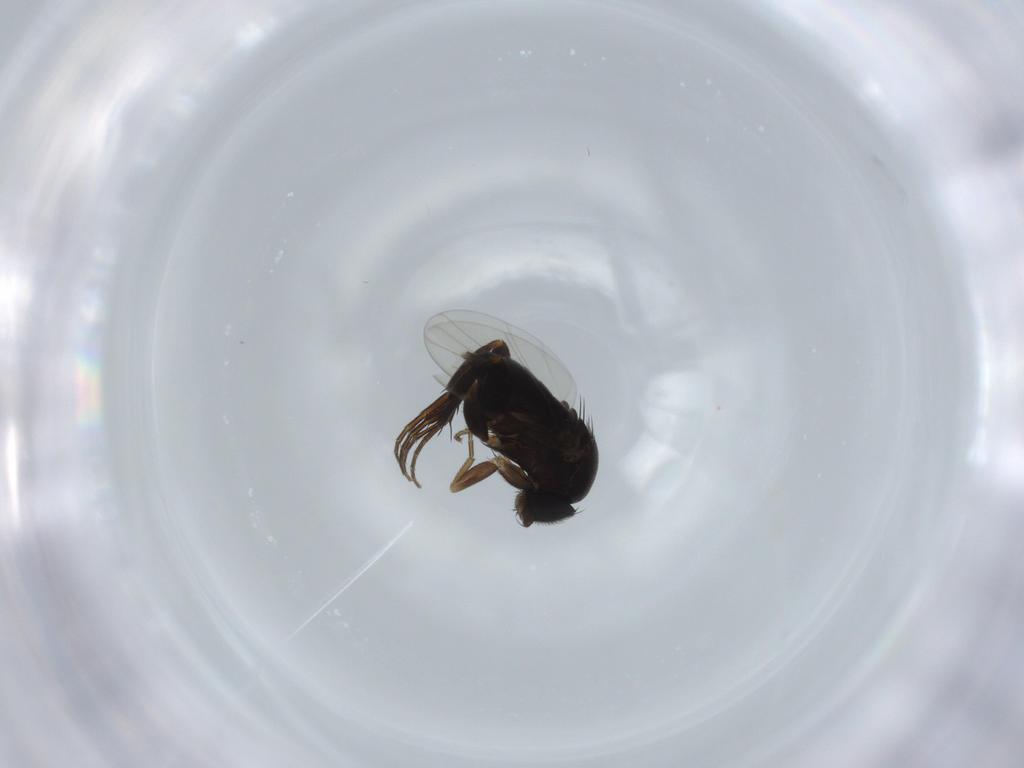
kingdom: Animalia
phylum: Arthropoda
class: Insecta
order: Diptera
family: Phoridae
